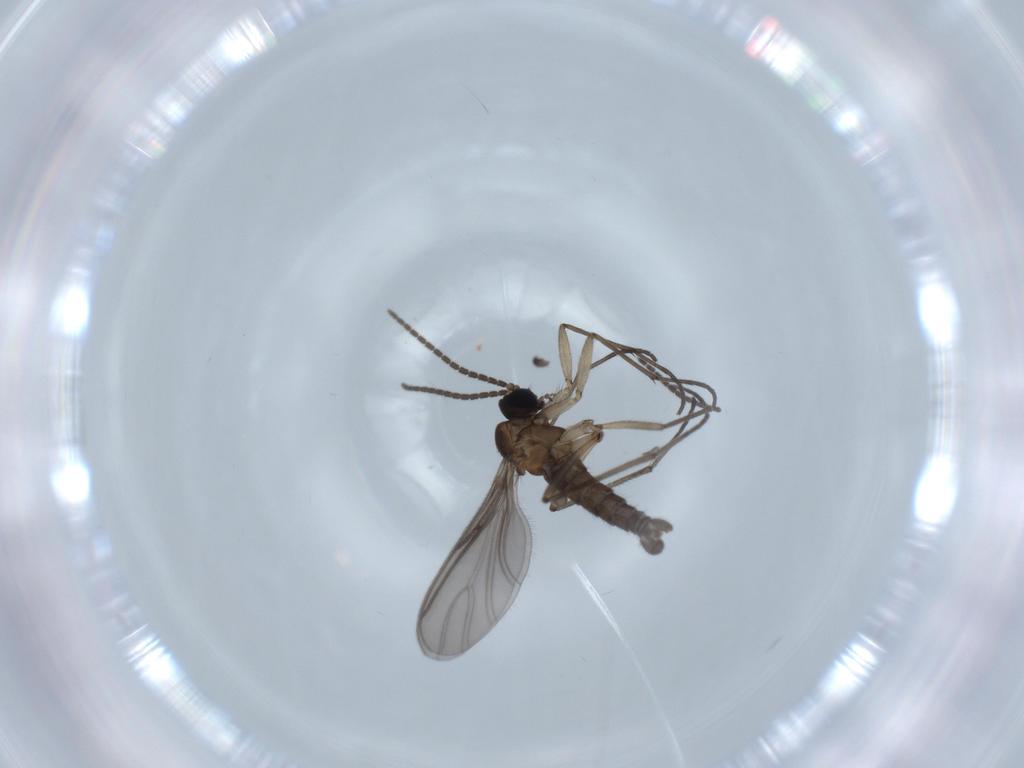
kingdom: Animalia
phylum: Arthropoda
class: Insecta
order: Diptera
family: Sciaridae
